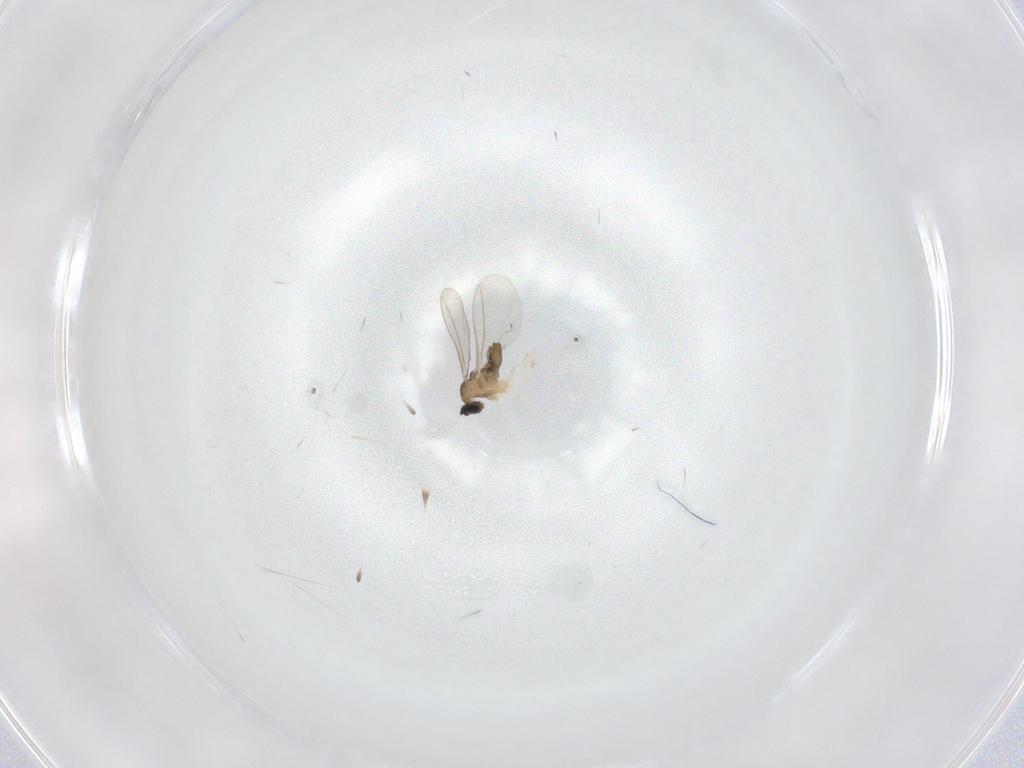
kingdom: Animalia
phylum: Arthropoda
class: Insecta
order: Diptera
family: Cecidomyiidae
